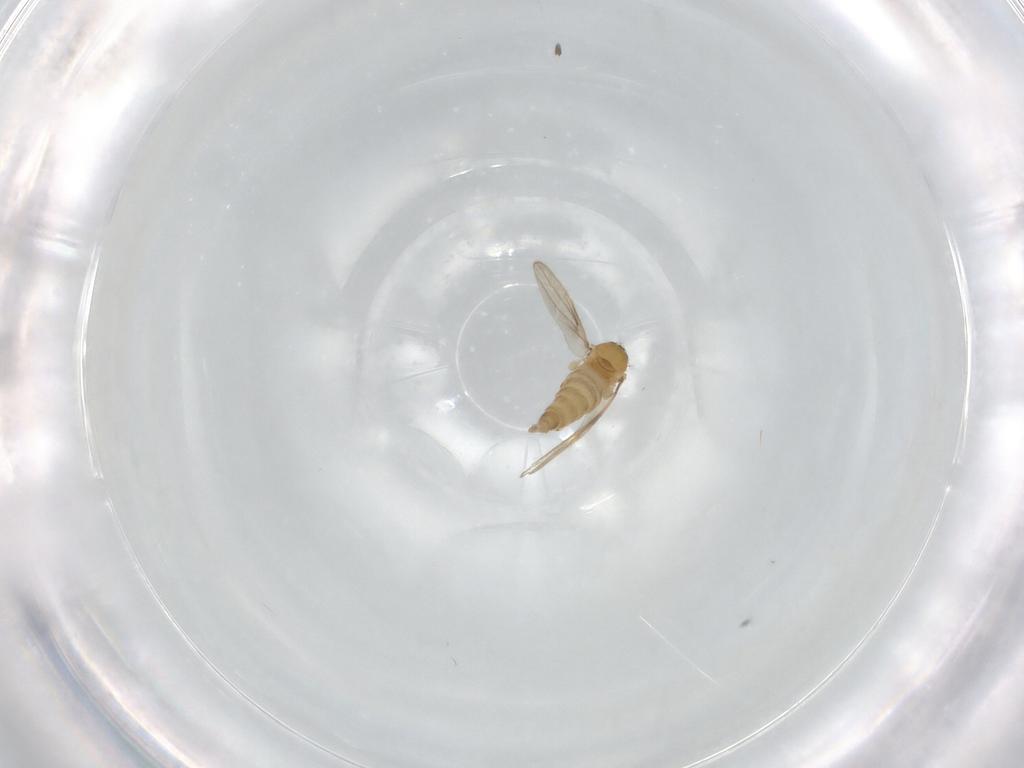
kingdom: Animalia
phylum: Arthropoda
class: Insecta
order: Diptera
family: Hybotidae
